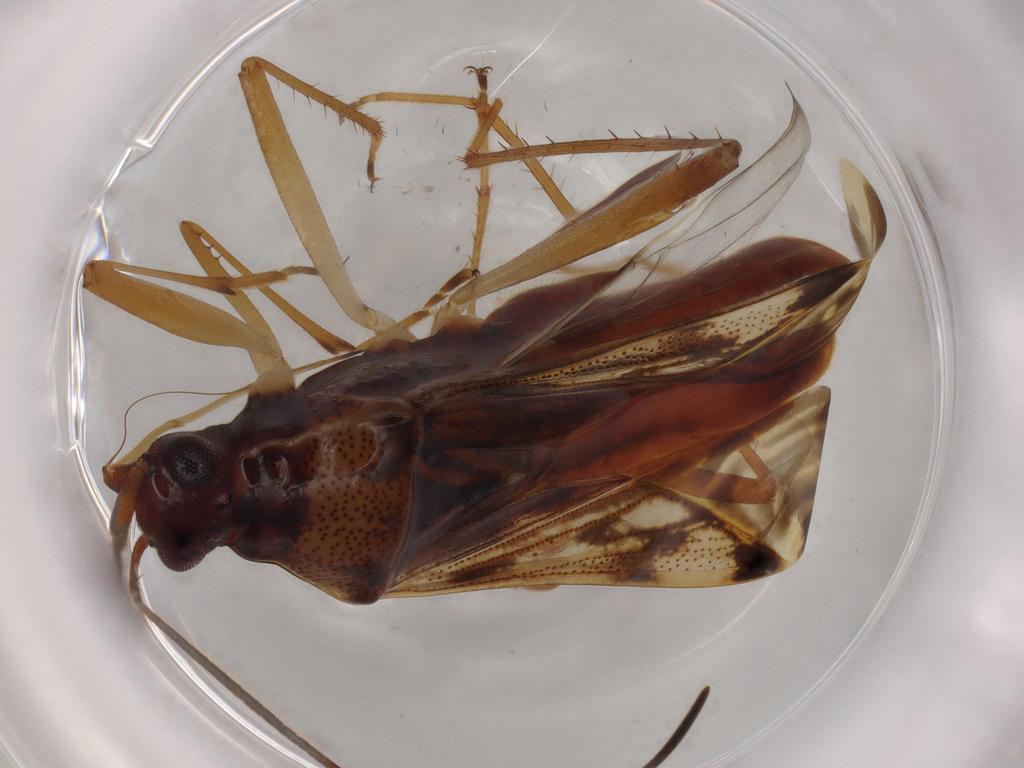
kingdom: Animalia
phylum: Arthropoda
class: Insecta
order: Hemiptera
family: Rhyparochromidae
